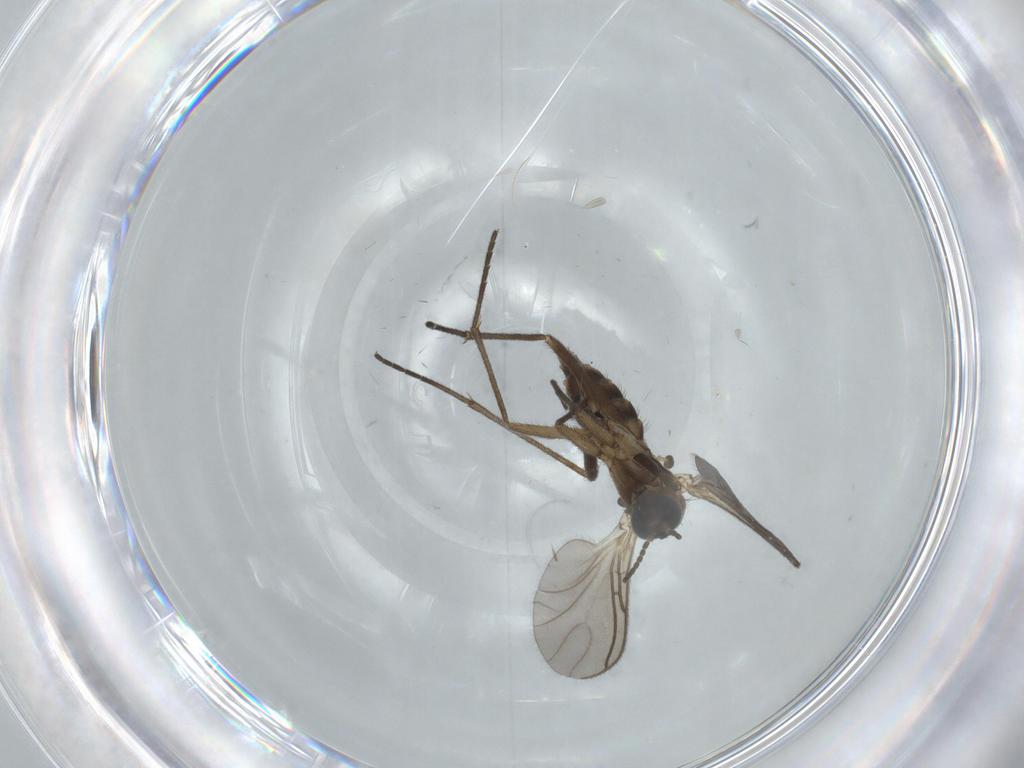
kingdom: Animalia
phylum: Arthropoda
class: Insecta
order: Diptera
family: Sciaridae
